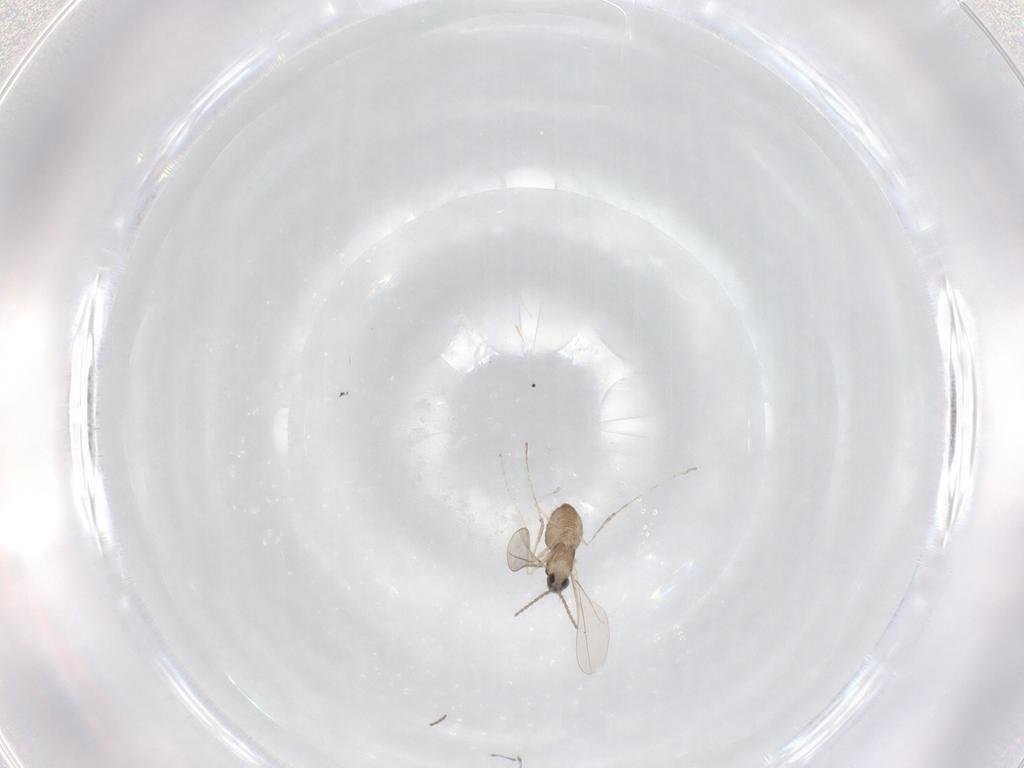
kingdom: Animalia
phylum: Arthropoda
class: Insecta
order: Diptera
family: Cecidomyiidae
